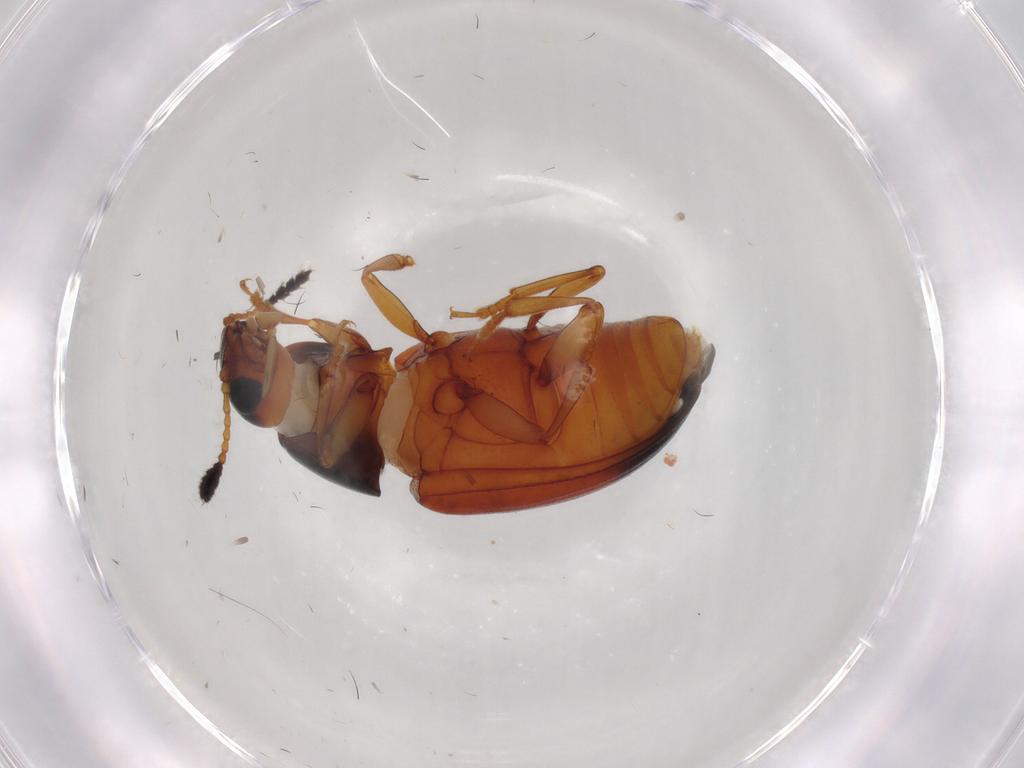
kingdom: Animalia
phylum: Arthropoda
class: Insecta
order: Coleoptera
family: Erotylidae
